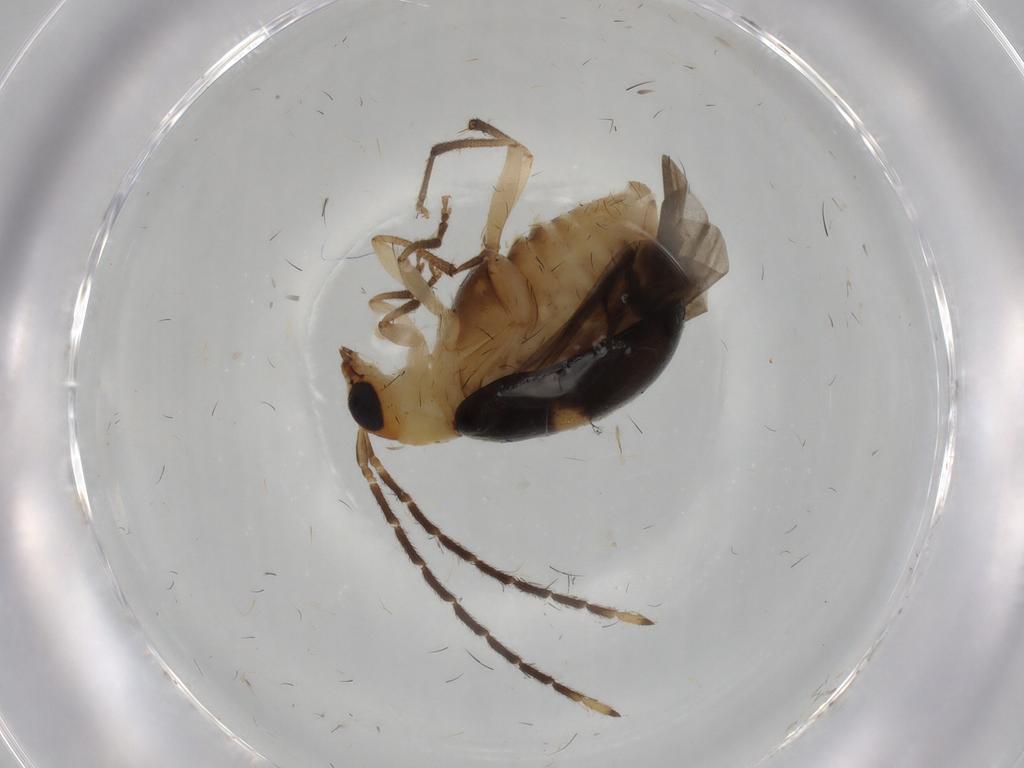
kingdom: Animalia
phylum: Arthropoda
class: Insecta
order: Coleoptera
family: Chrysomelidae
